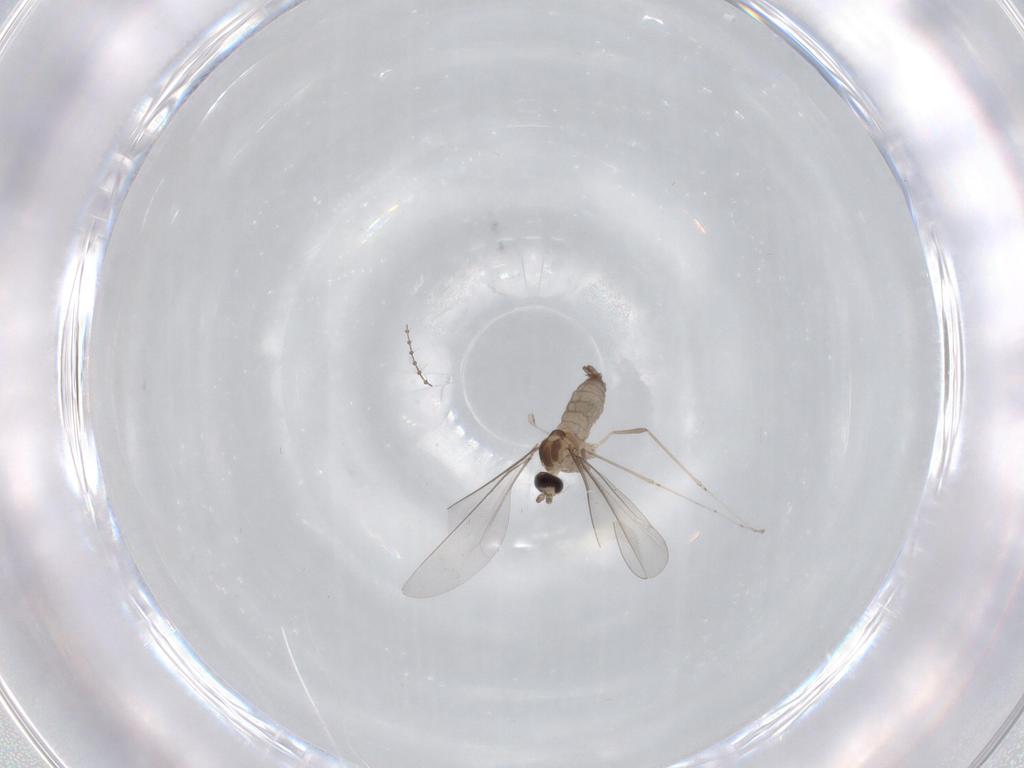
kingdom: Animalia
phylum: Arthropoda
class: Insecta
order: Diptera
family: Cecidomyiidae
